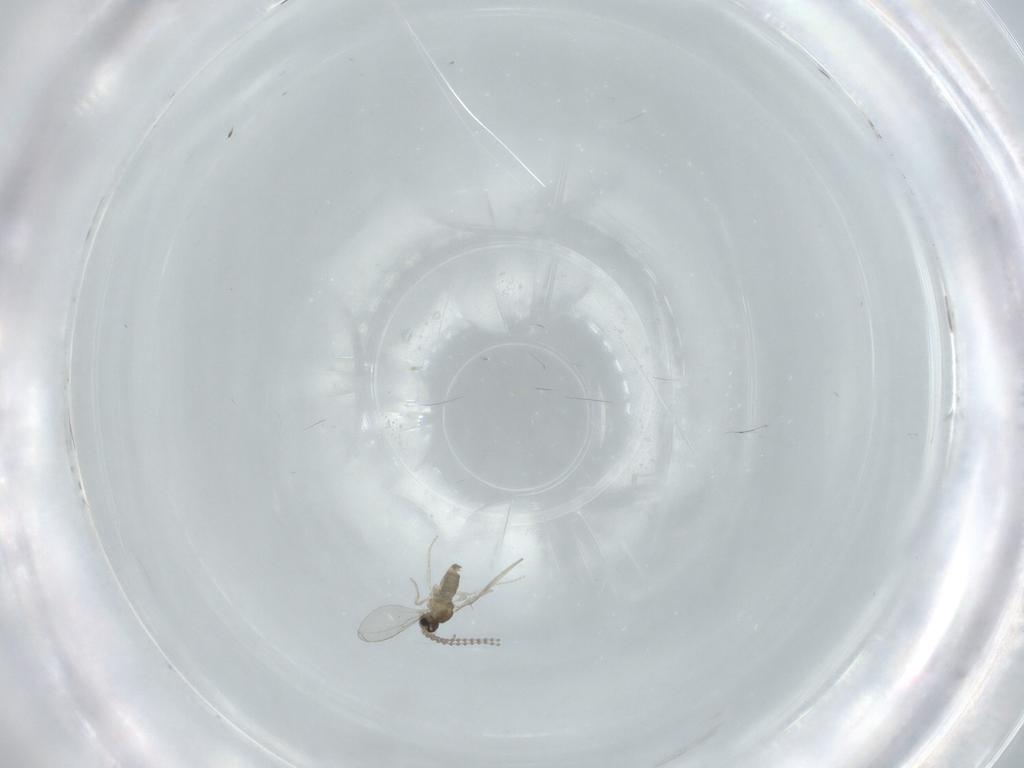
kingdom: Animalia
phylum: Arthropoda
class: Insecta
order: Diptera
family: Cecidomyiidae
